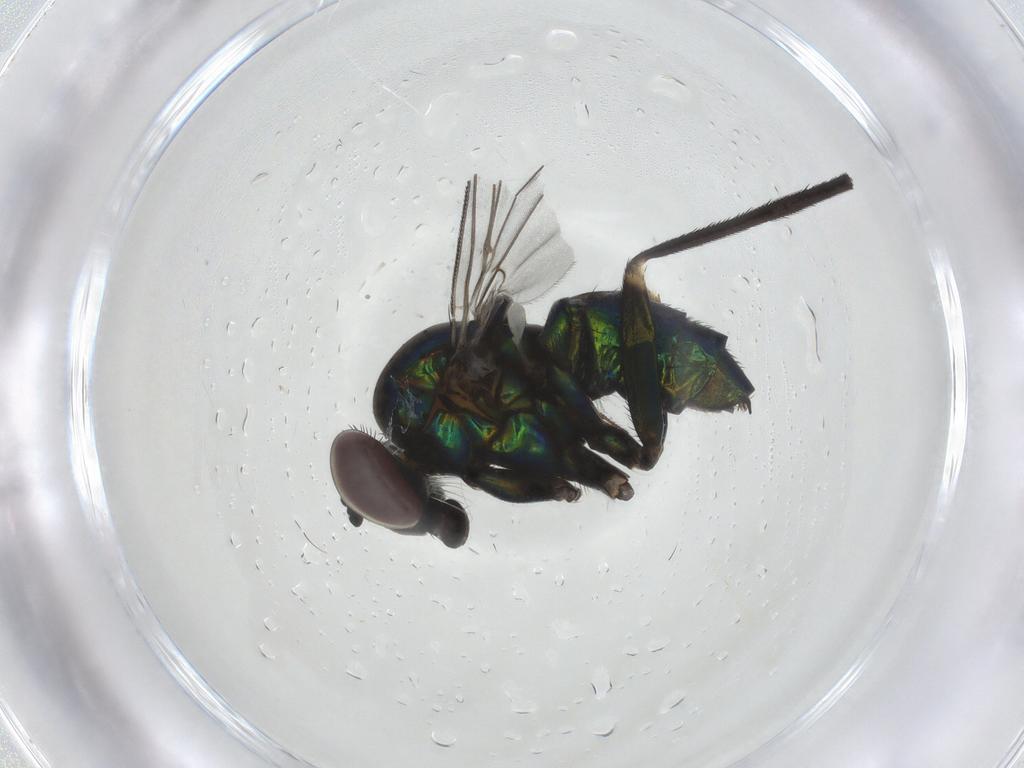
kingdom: Animalia
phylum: Arthropoda
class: Insecta
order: Diptera
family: Dolichopodidae
